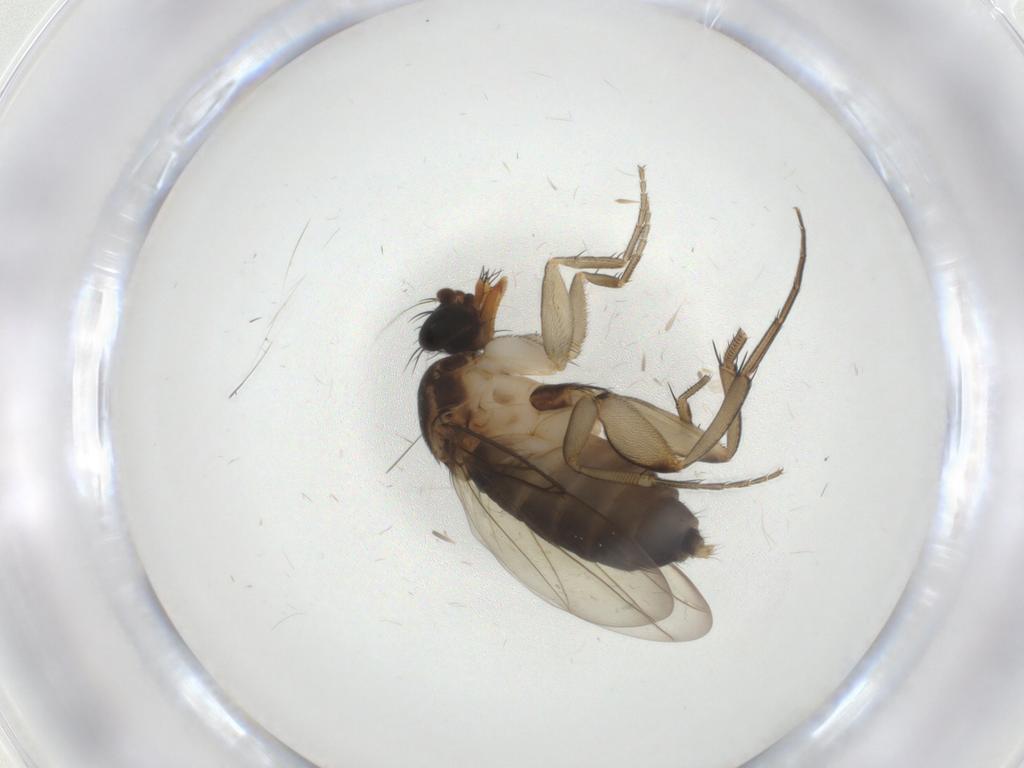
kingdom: Animalia
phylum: Arthropoda
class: Insecta
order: Diptera
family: Phoridae
